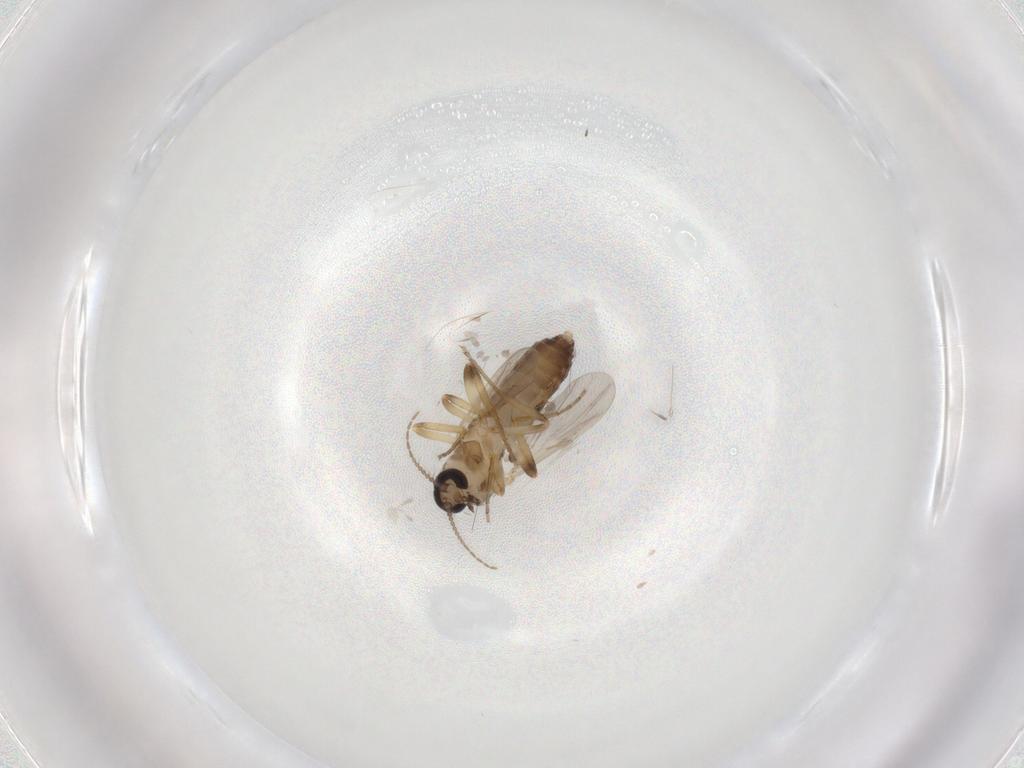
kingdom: Animalia
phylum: Arthropoda
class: Insecta
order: Diptera
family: Ceratopogonidae
